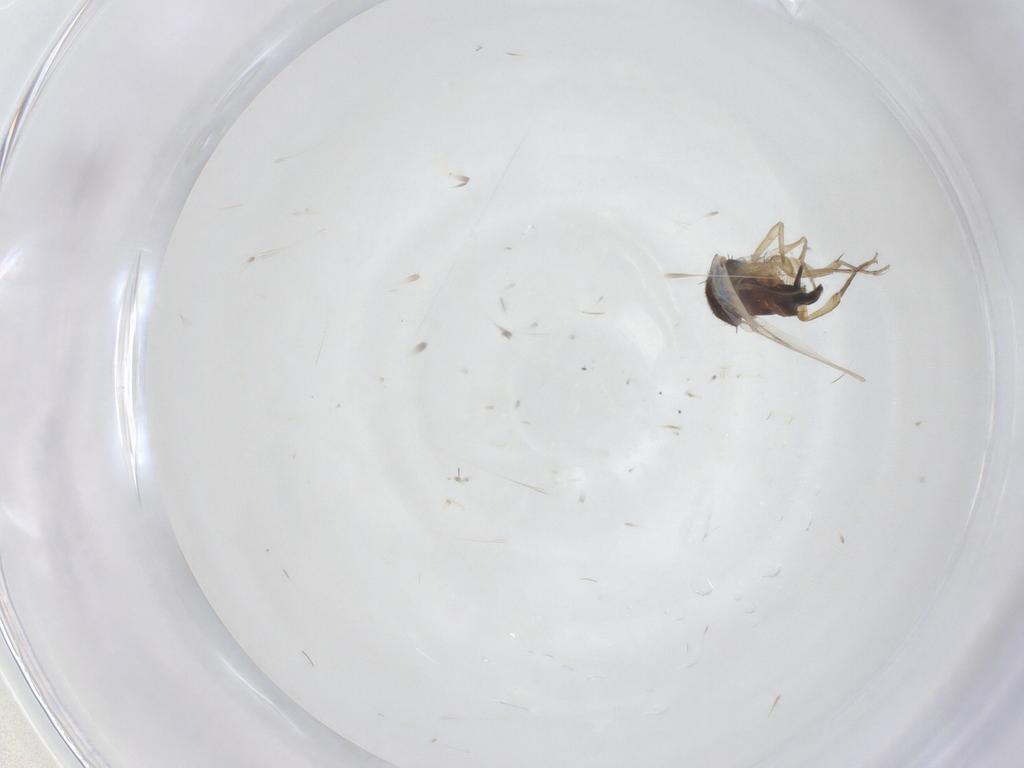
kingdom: Animalia
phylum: Arthropoda
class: Insecta
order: Diptera
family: Phoridae
